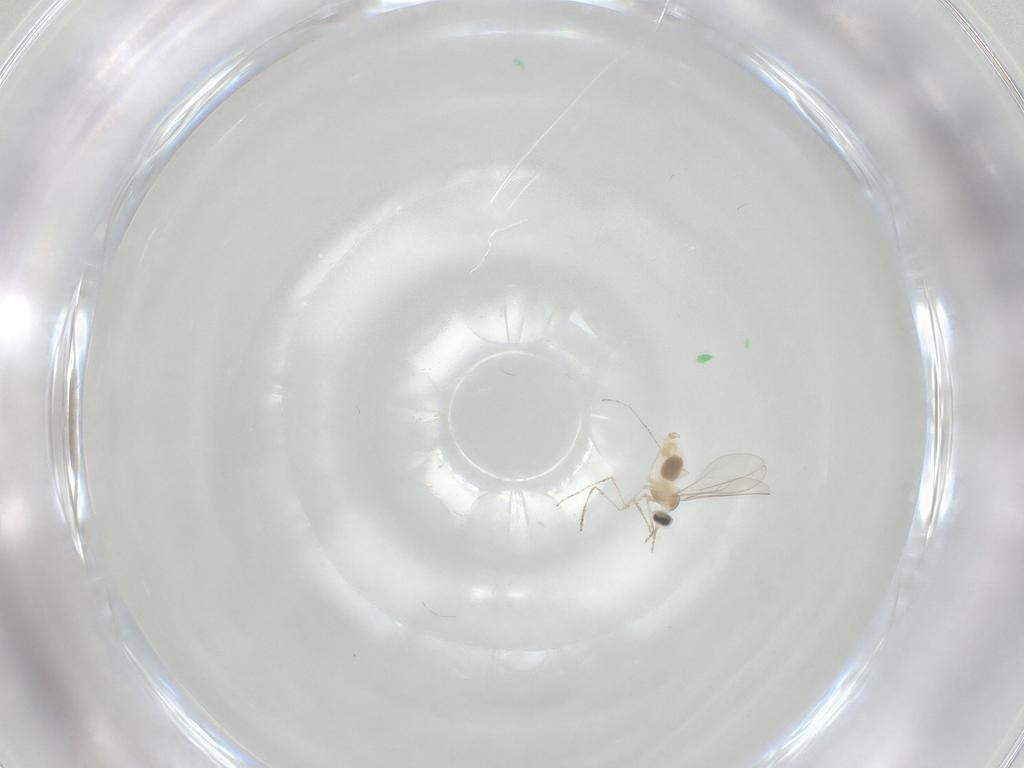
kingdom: Animalia
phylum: Arthropoda
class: Insecta
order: Diptera
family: Cecidomyiidae
